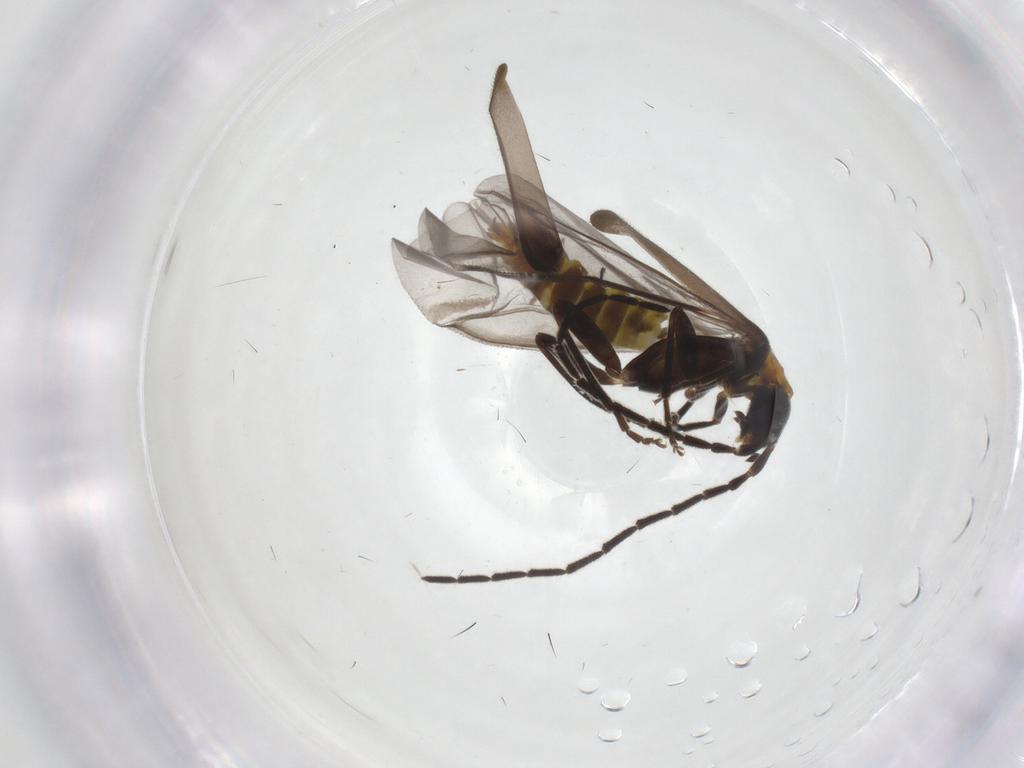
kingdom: Animalia
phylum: Arthropoda
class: Insecta
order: Coleoptera
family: Cantharidae
